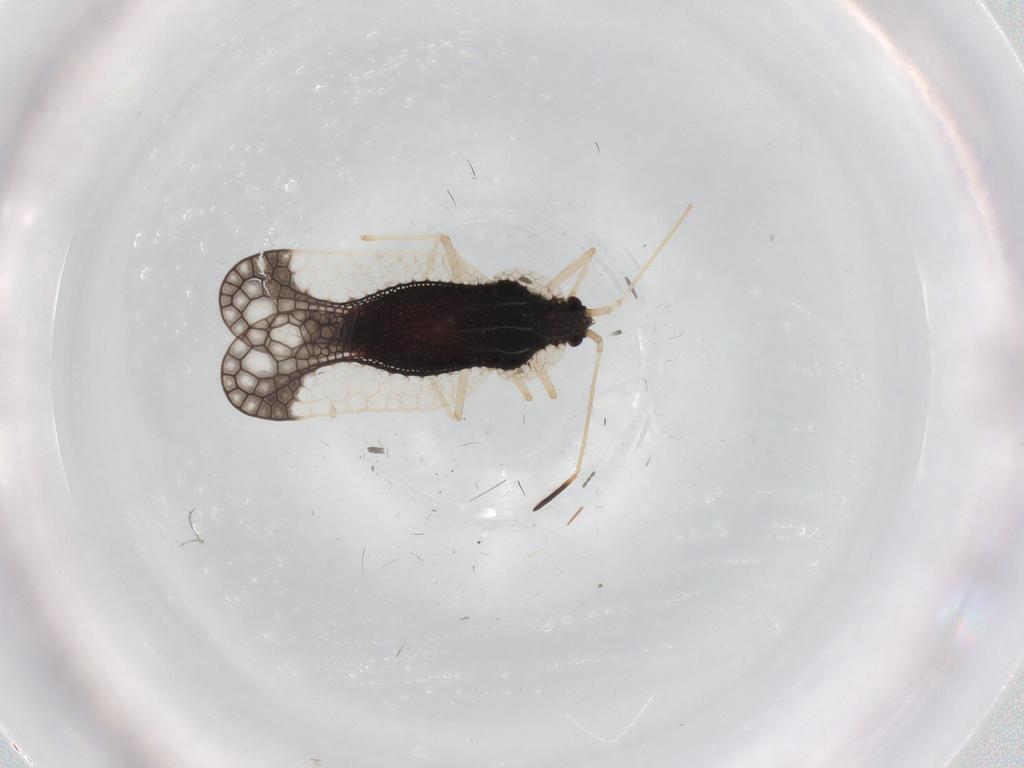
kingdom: Animalia
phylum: Arthropoda
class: Insecta
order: Hemiptera
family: Tingidae
